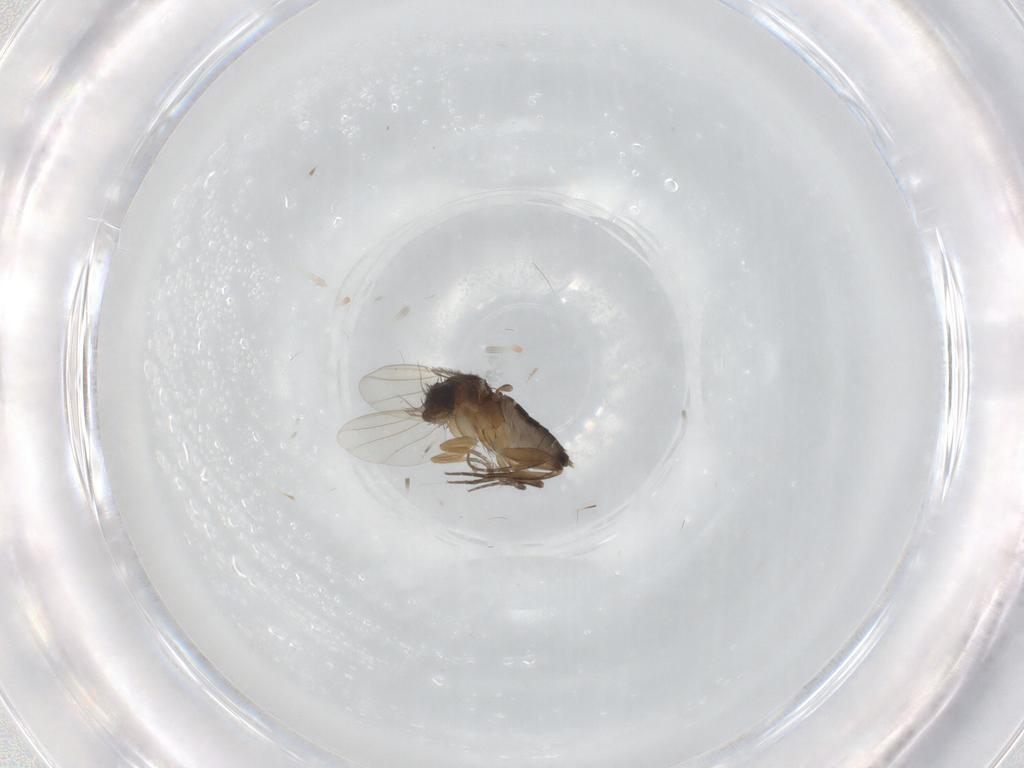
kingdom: Animalia
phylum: Arthropoda
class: Insecta
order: Diptera
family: Phoridae
